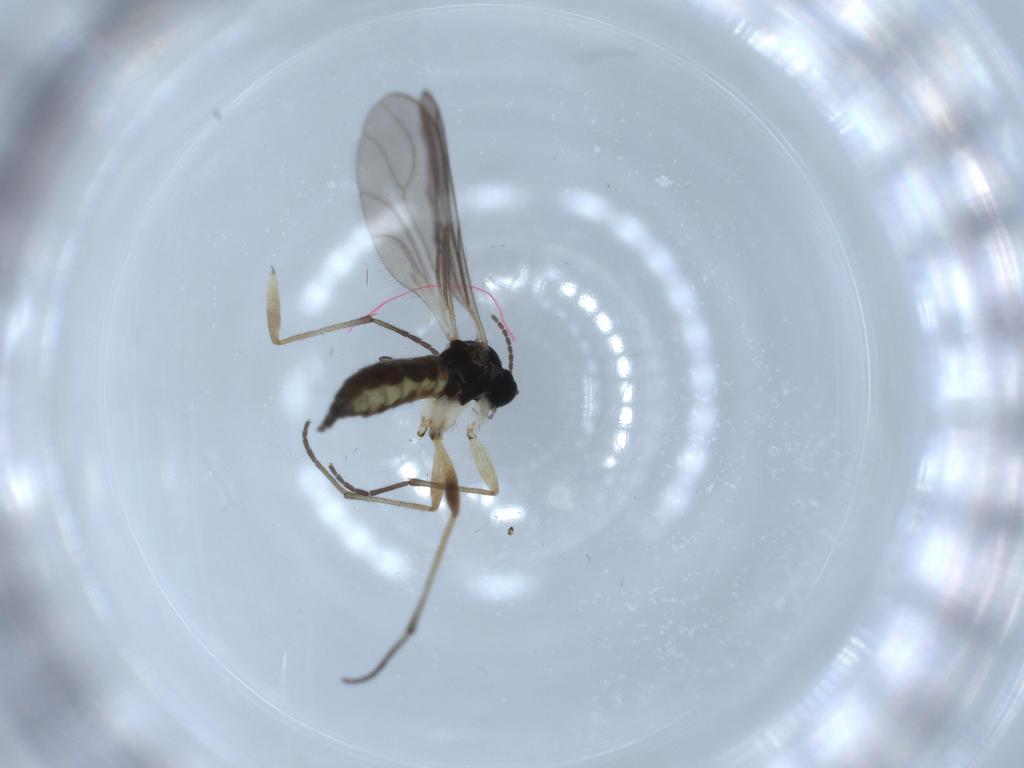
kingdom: Animalia
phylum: Arthropoda
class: Insecta
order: Diptera
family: Sciaridae
